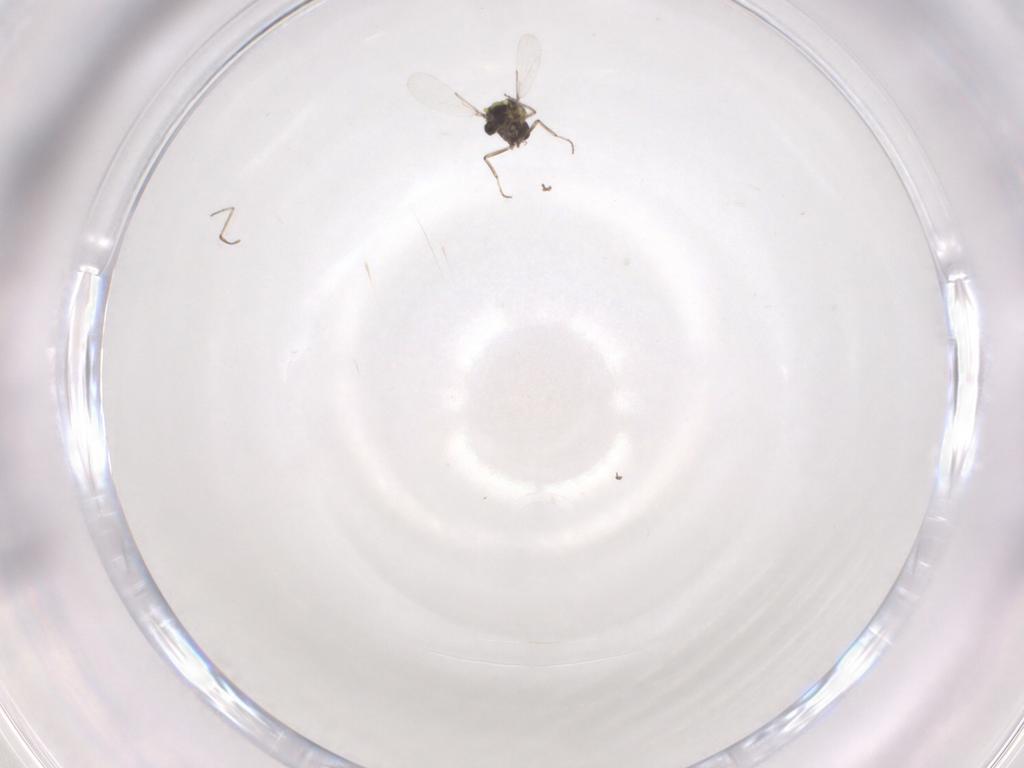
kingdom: Animalia
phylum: Arthropoda
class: Insecta
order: Diptera
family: Ceratopogonidae
